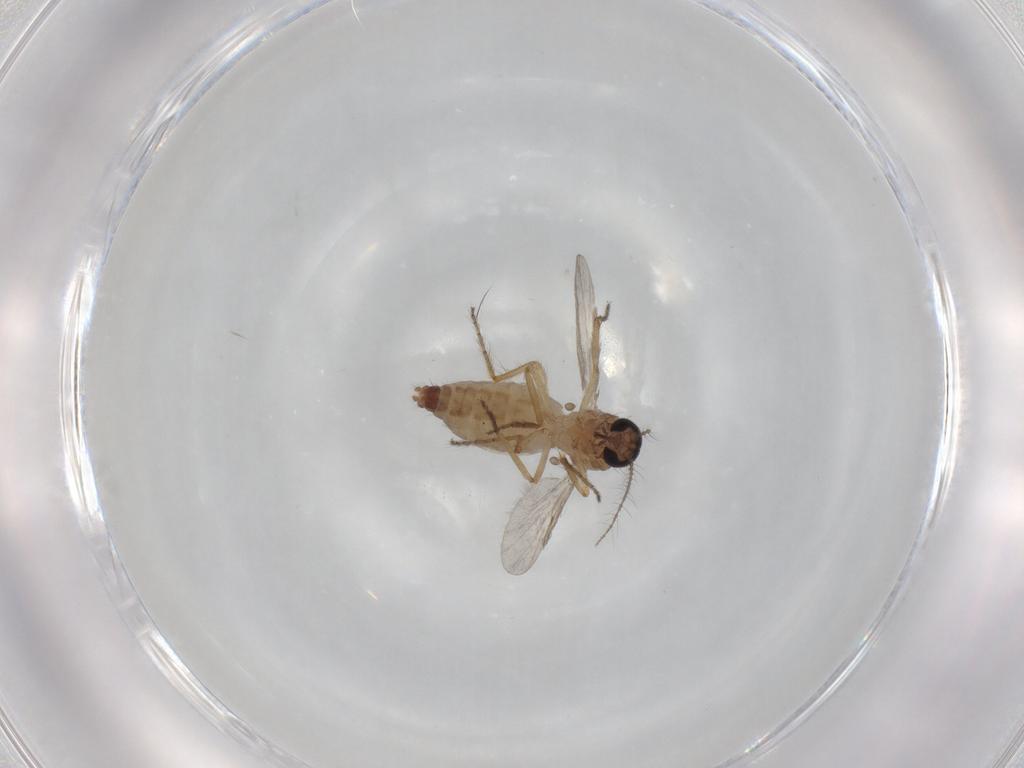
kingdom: Animalia
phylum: Arthropoda
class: Insecta
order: Diptera
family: Ceratopogonidae
